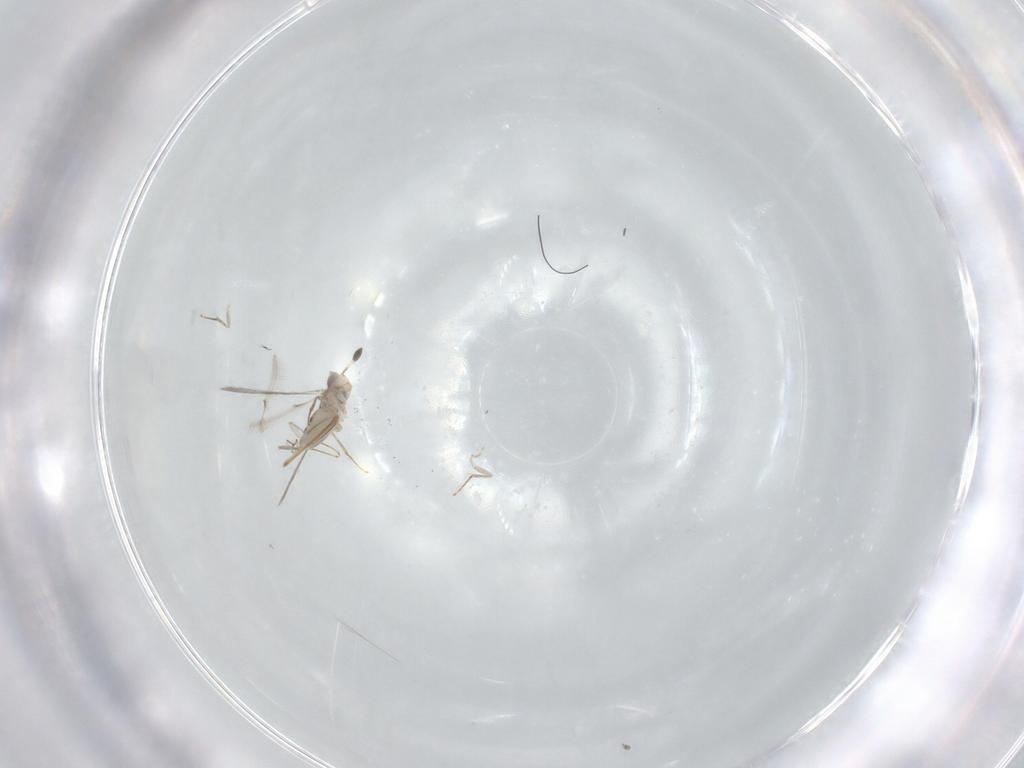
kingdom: Animalia
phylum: Arthropoda
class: Insecta
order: Hymenoptera
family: Mymaridae
